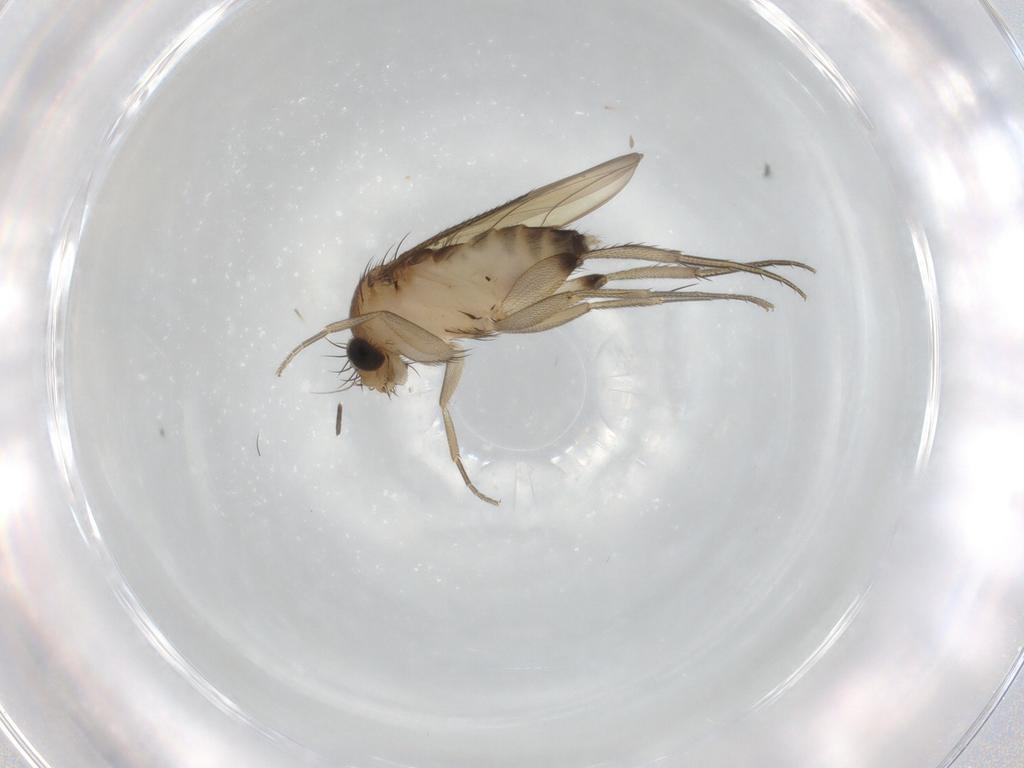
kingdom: Animalia
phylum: Arthropoda
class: Insecta
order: Diptera
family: Phoridae
